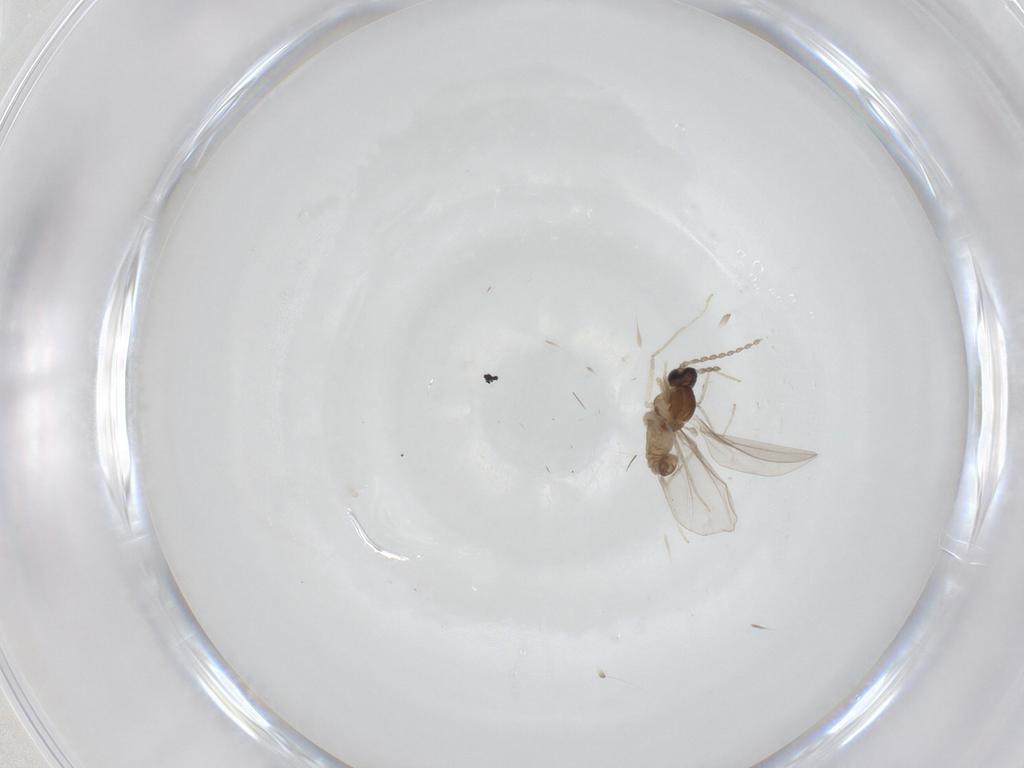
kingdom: Animalia
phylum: Arthropoda
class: Insecta
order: Diptera
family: Cecidomyiidae
